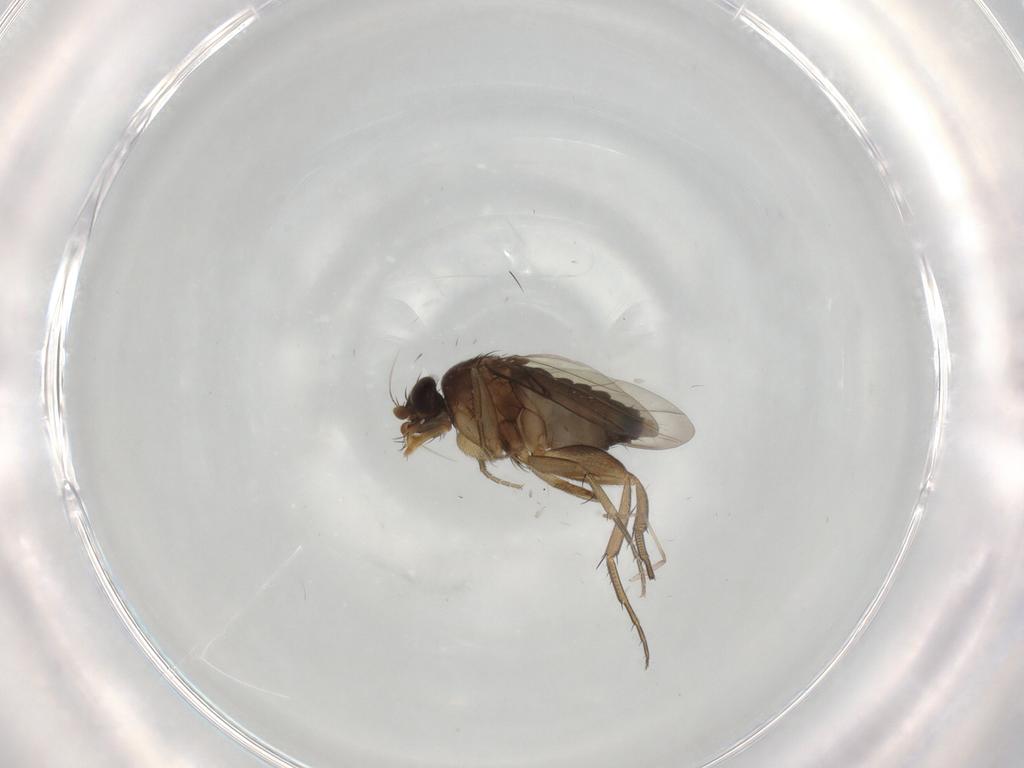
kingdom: Animalia
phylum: Arthropoda
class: Insecta
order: Diptera
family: Psychodidae
